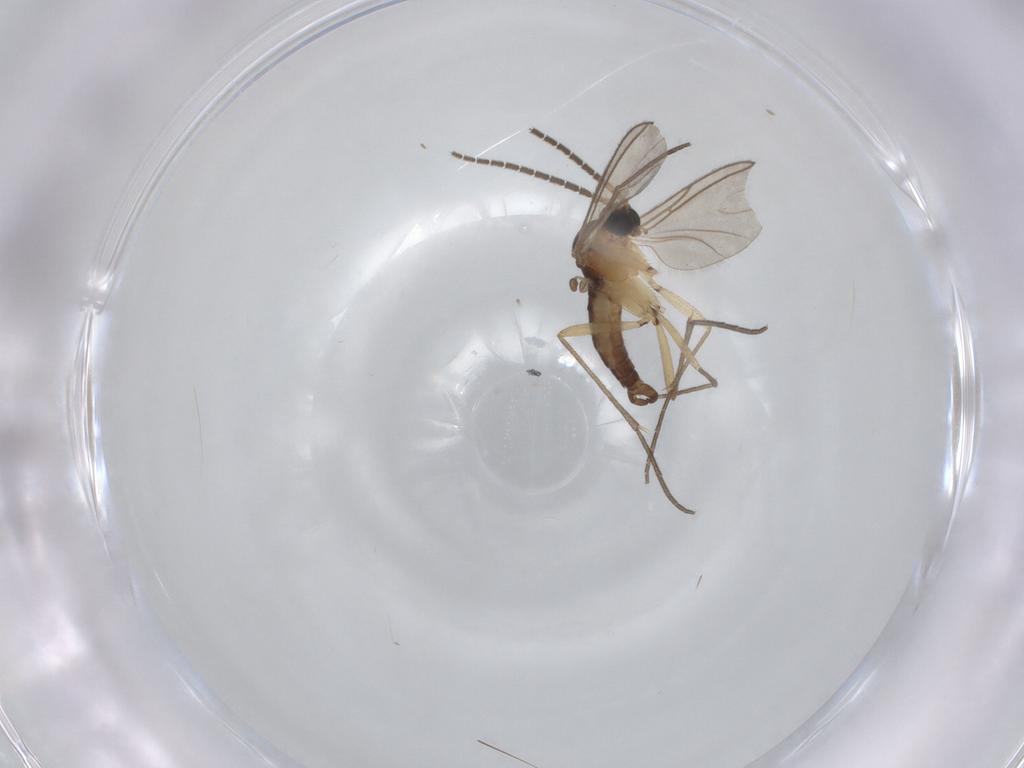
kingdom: Animalia
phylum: Arthropoda
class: Insecta
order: Diptera
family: Sciaridae
